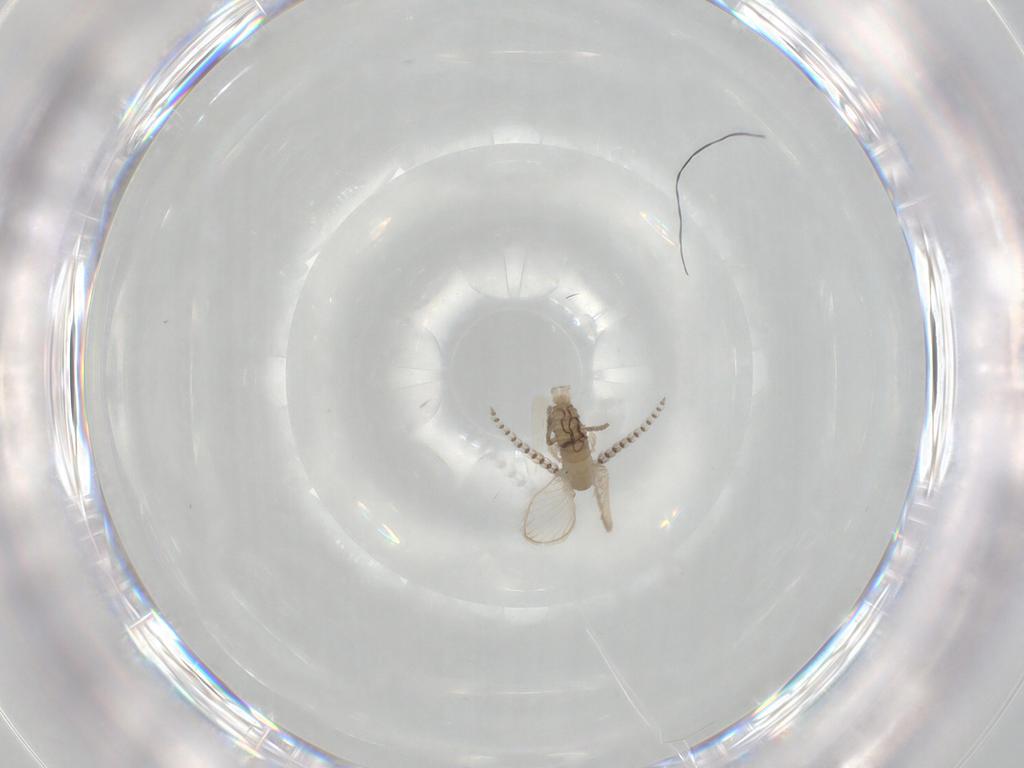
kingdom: Animalia
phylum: Arthropoda
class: Insecta
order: Diptera
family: Psychodidae
